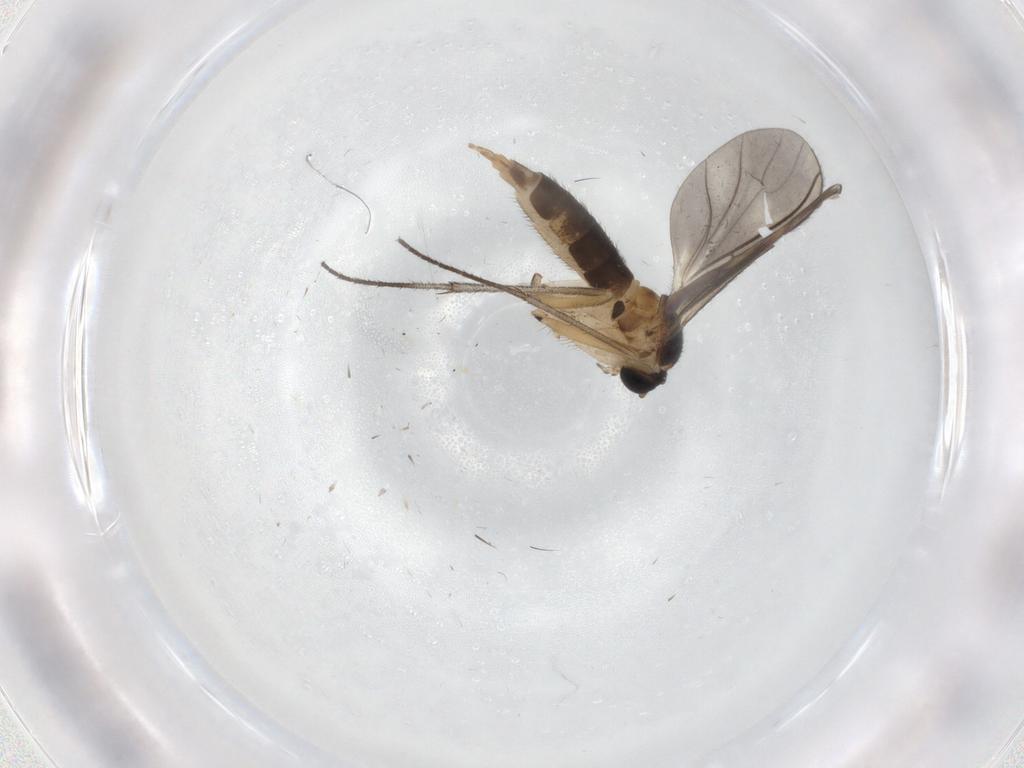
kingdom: Animalia
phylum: Arthropoda
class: Insecta
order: Diptera
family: Sciaridae
